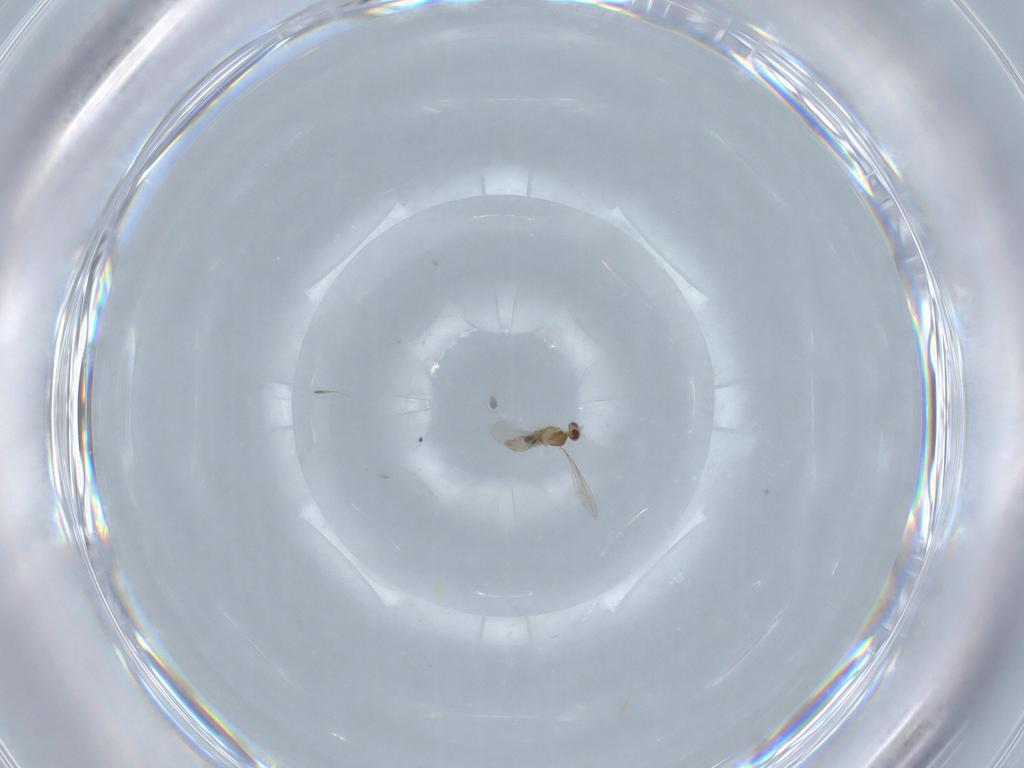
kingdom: Animalia
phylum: Arthropoda
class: Insecta
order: Diptera
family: Cecidomyiidae
